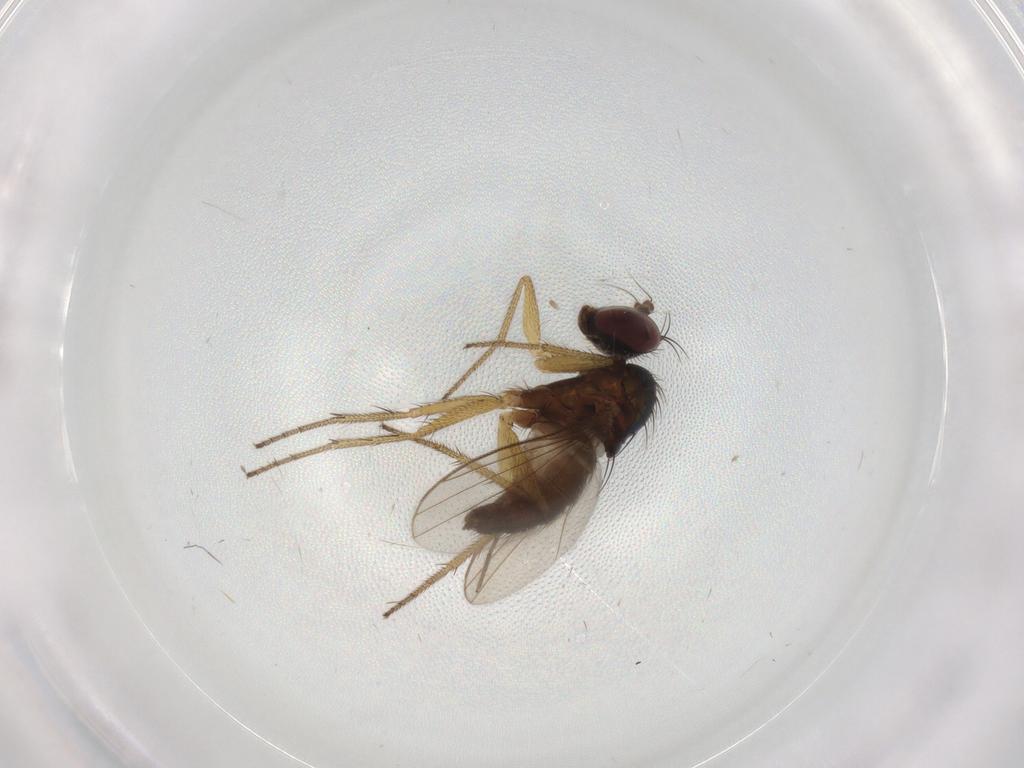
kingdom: Animalia
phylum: Arthropoda
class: Insecta
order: Diptera
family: Dolichopodidae
